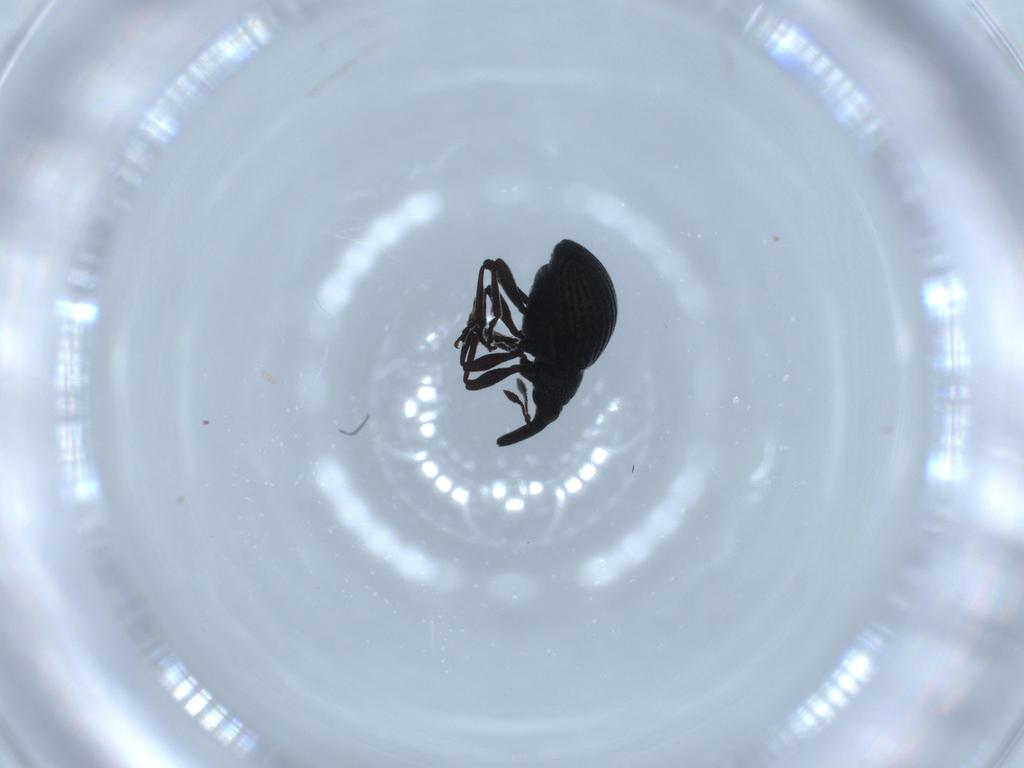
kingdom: Animalia
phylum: Arthropoda
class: Insecta
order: Coleoptera
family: Brentidae
